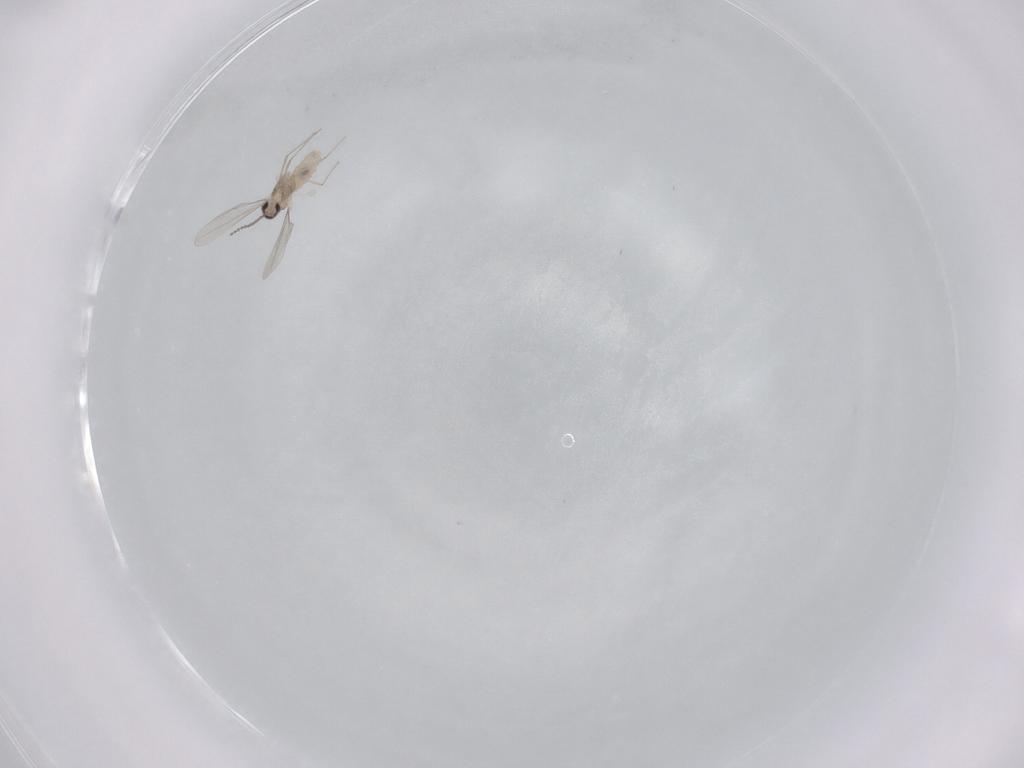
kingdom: Animalia
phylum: Arthropoda
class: Insecta
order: Diptera
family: Cecidomyiidae
